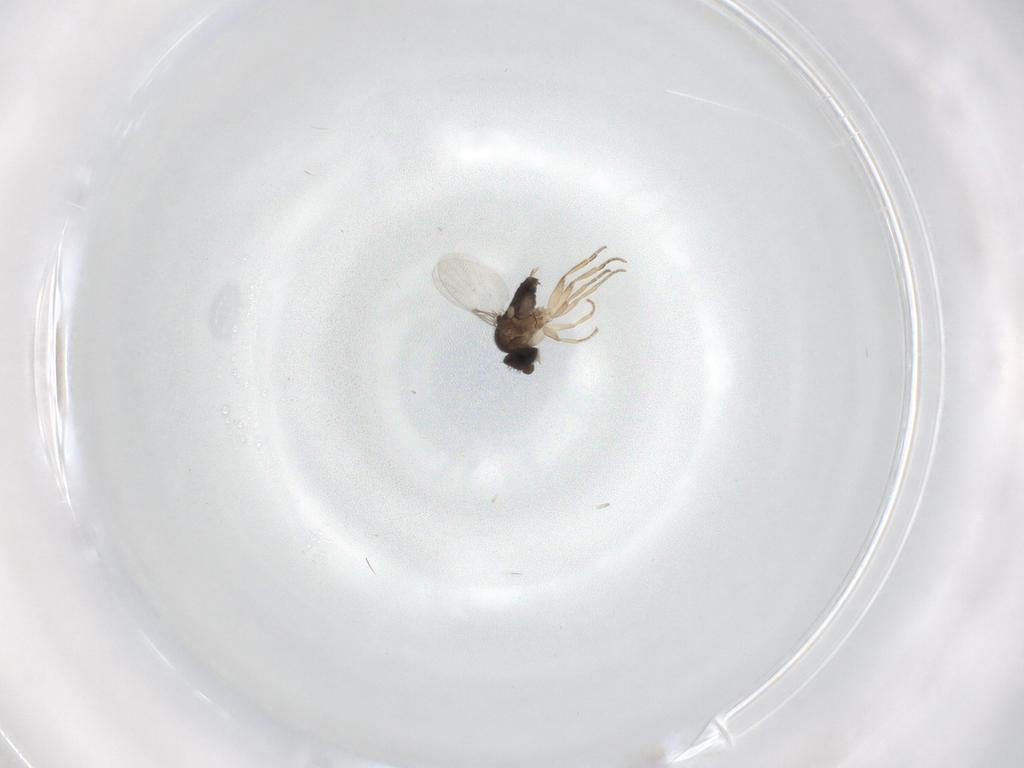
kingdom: Animalia
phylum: Arthropoda
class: Insecta
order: Diptera
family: Phoridae
